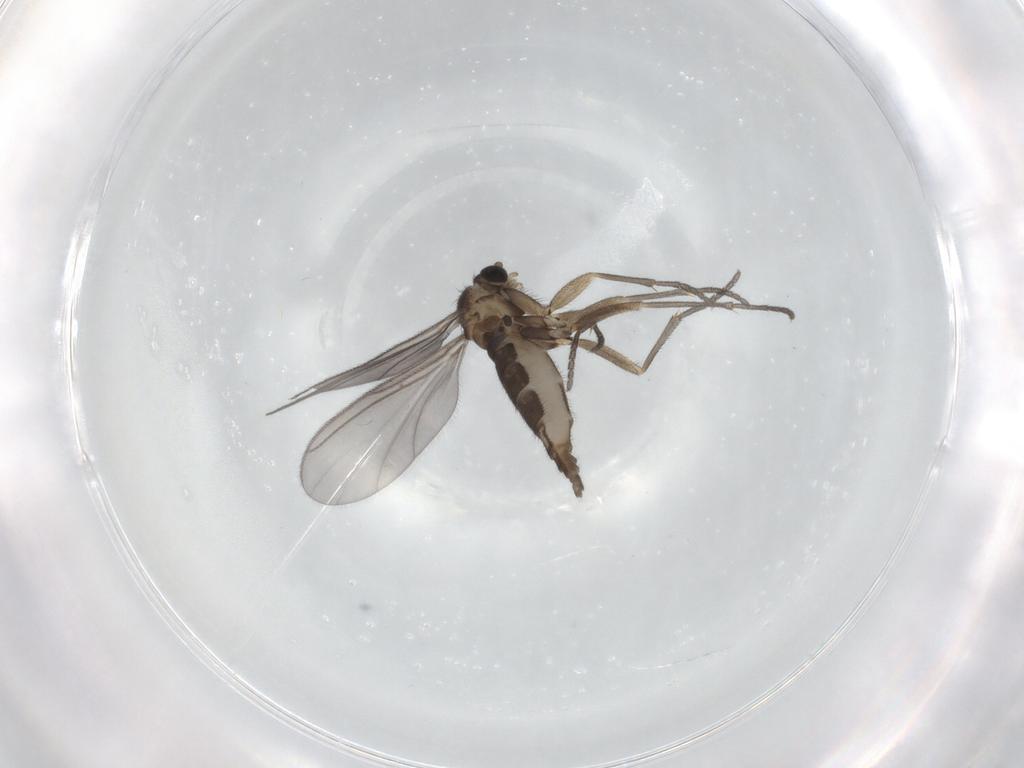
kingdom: Animalia
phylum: Arthropoda
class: Insecta
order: Diptera
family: Sciaridae
